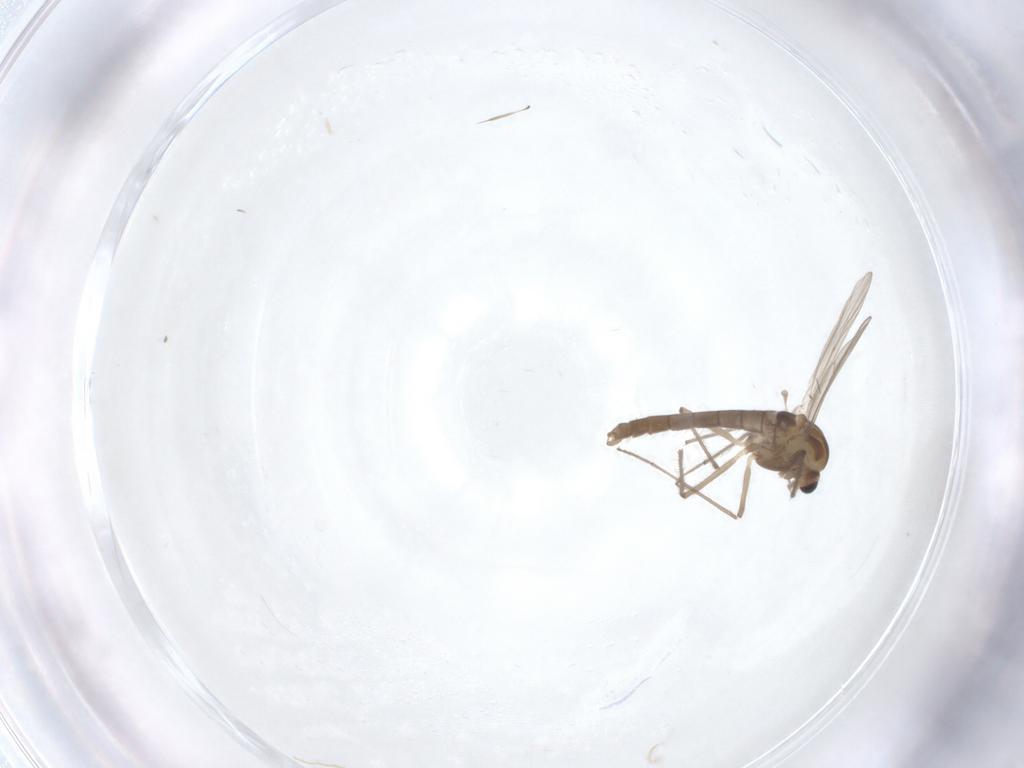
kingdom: Animalia
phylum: Arthropoda
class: Insecta
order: Diptera
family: Chironomidae
